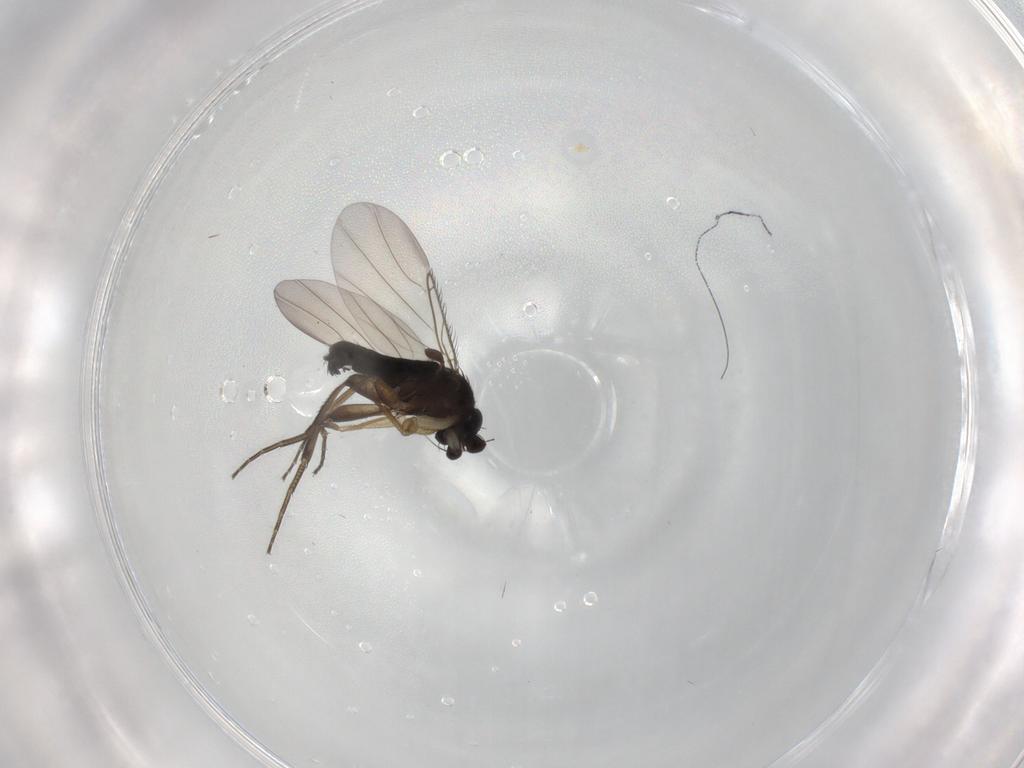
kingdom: Animalia
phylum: Arthropoda
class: Insecta
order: Diptera
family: Phoridae
